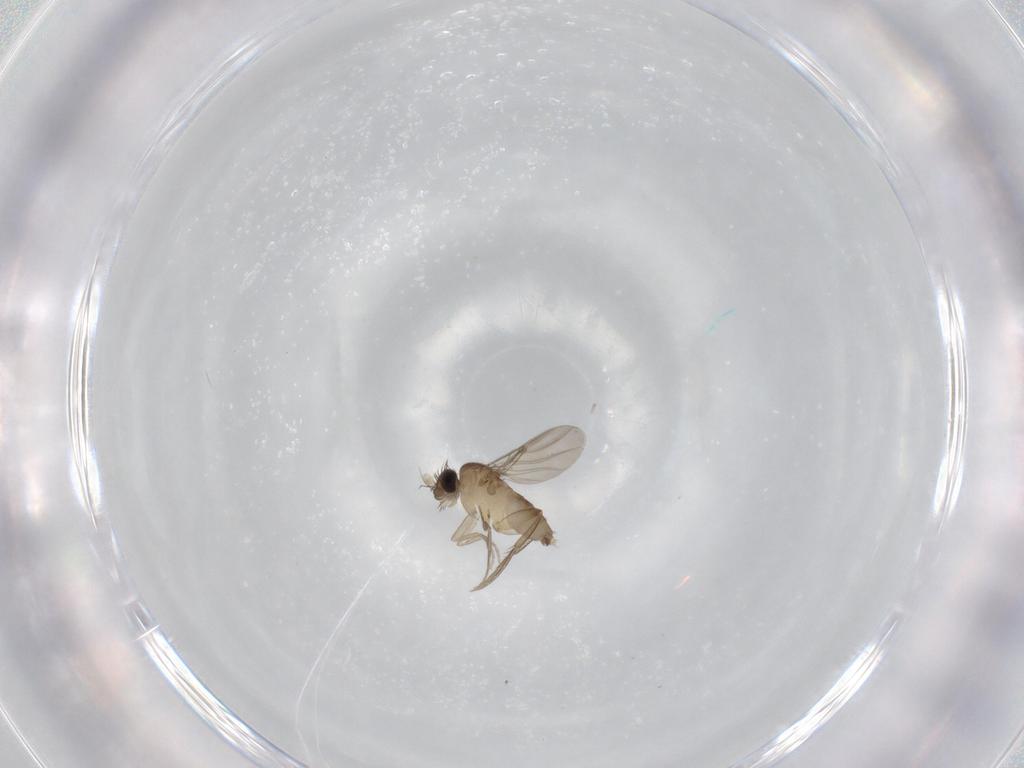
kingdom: Animalia
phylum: Arthropoda
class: Insecta
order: Diptera
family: Phoridae
